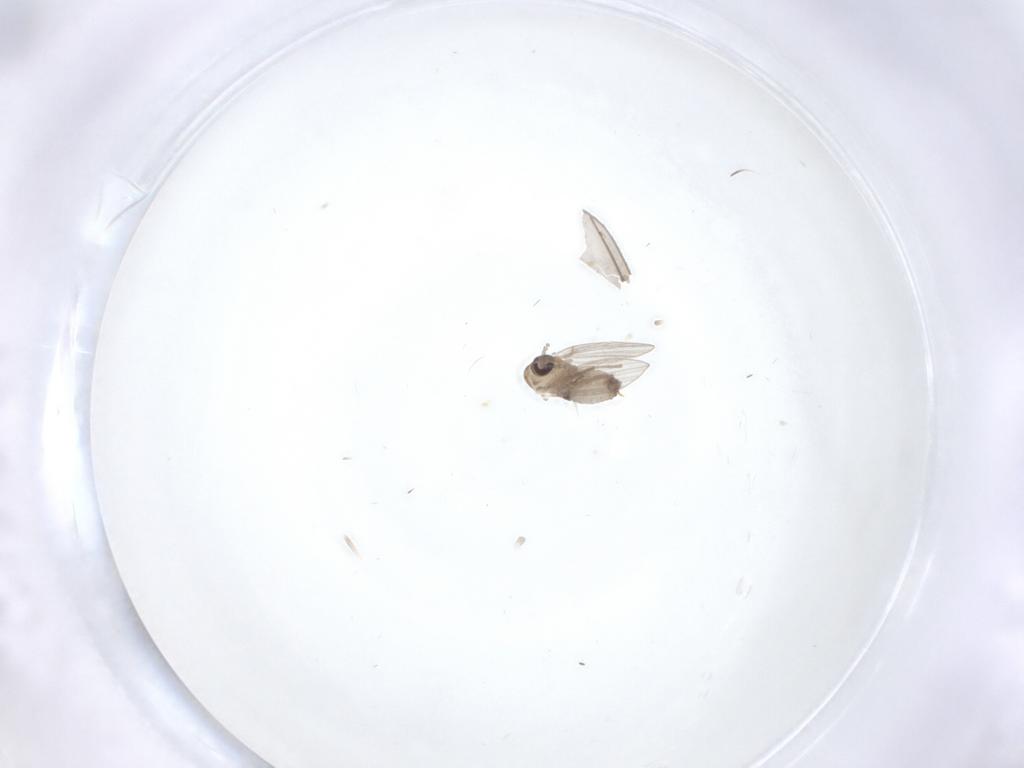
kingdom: Animalia
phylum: Arthropoda
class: Insecta
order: Diptera
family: Psychodidae
